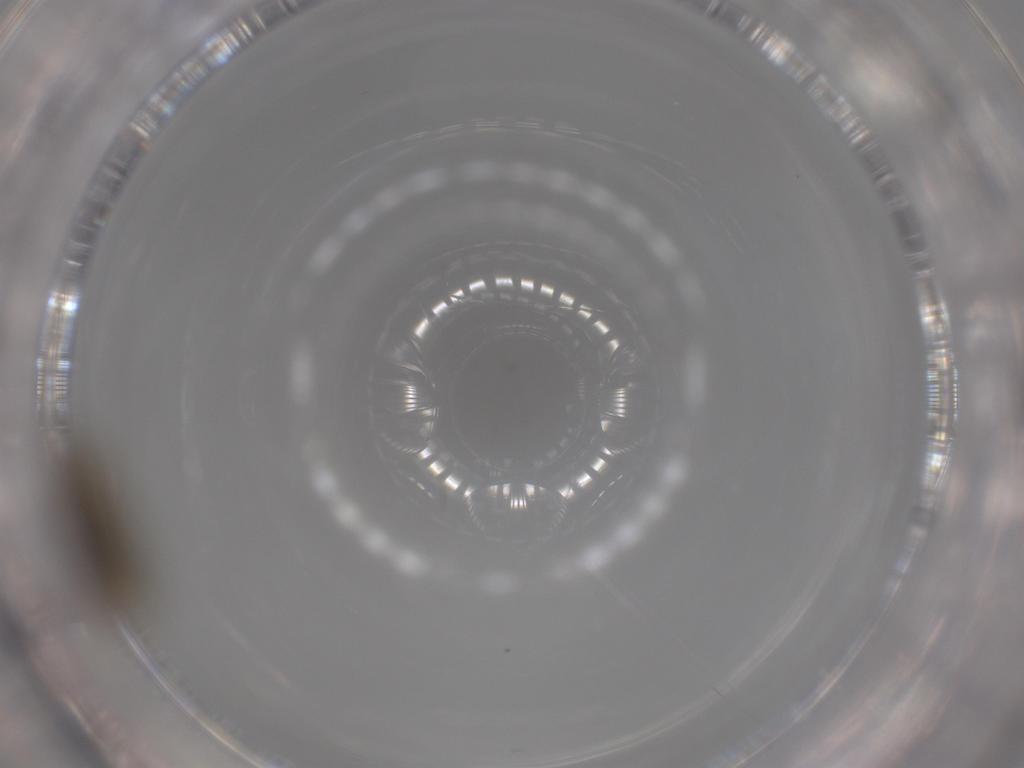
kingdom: Animalia
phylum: Arthropoda
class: Insecta
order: Lepidoptera
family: Gracillariidae
